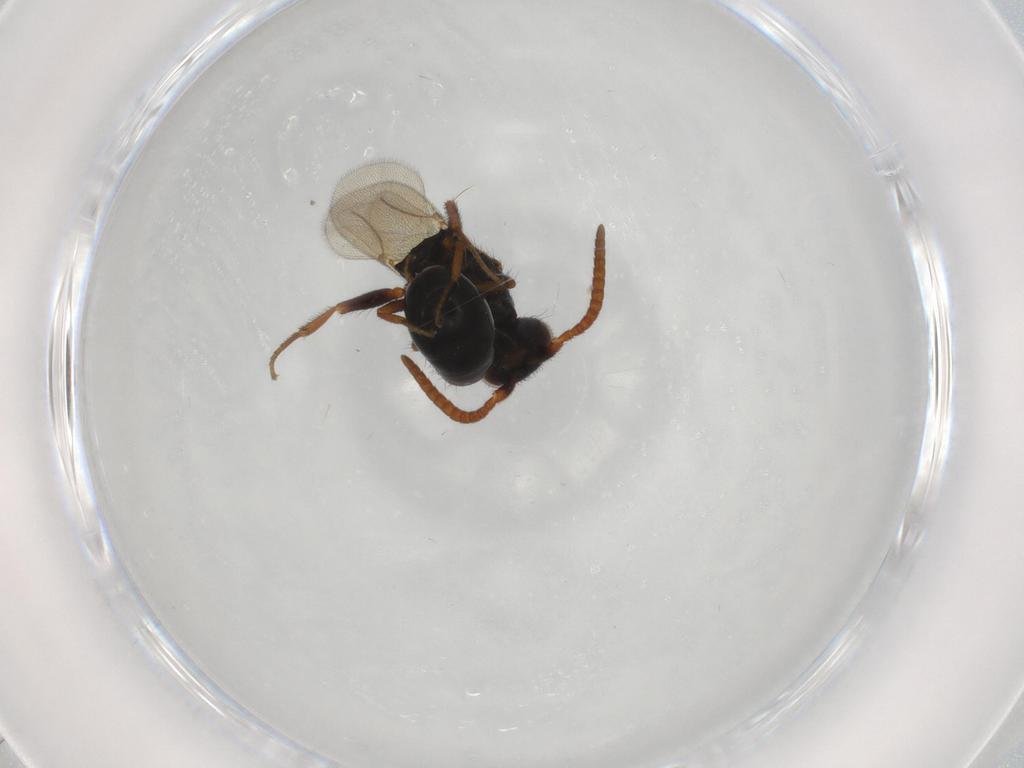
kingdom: Animalia
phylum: Arthropoda
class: Insecta
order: Hymenoptera
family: Bethylidae
